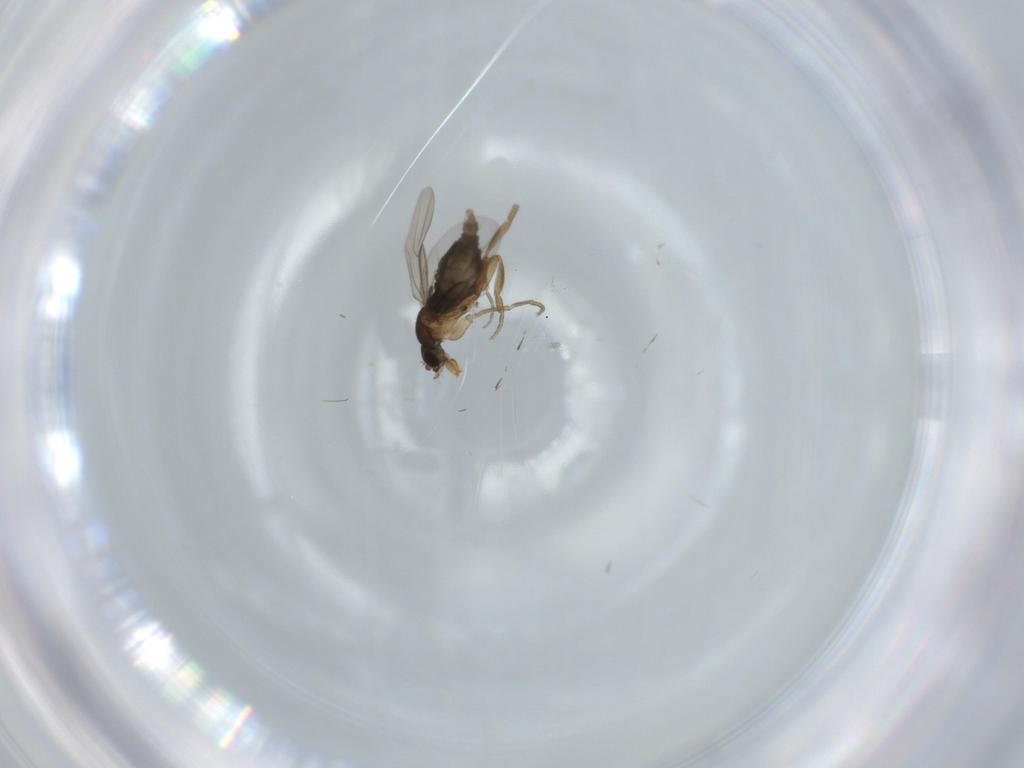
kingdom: Animalia
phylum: Arthropoda
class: Insecta
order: Diptera
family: Phoridae
